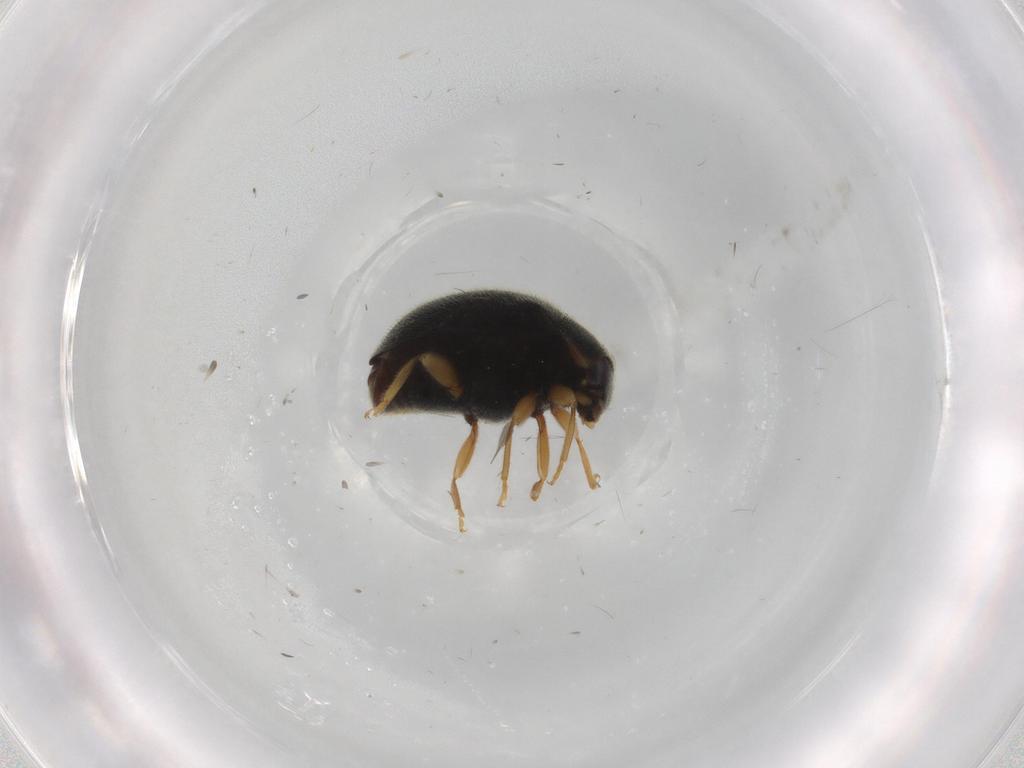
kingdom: Animalia
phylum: Arthropoda
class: Insecta
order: Coleoptera
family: Coccinellidae
